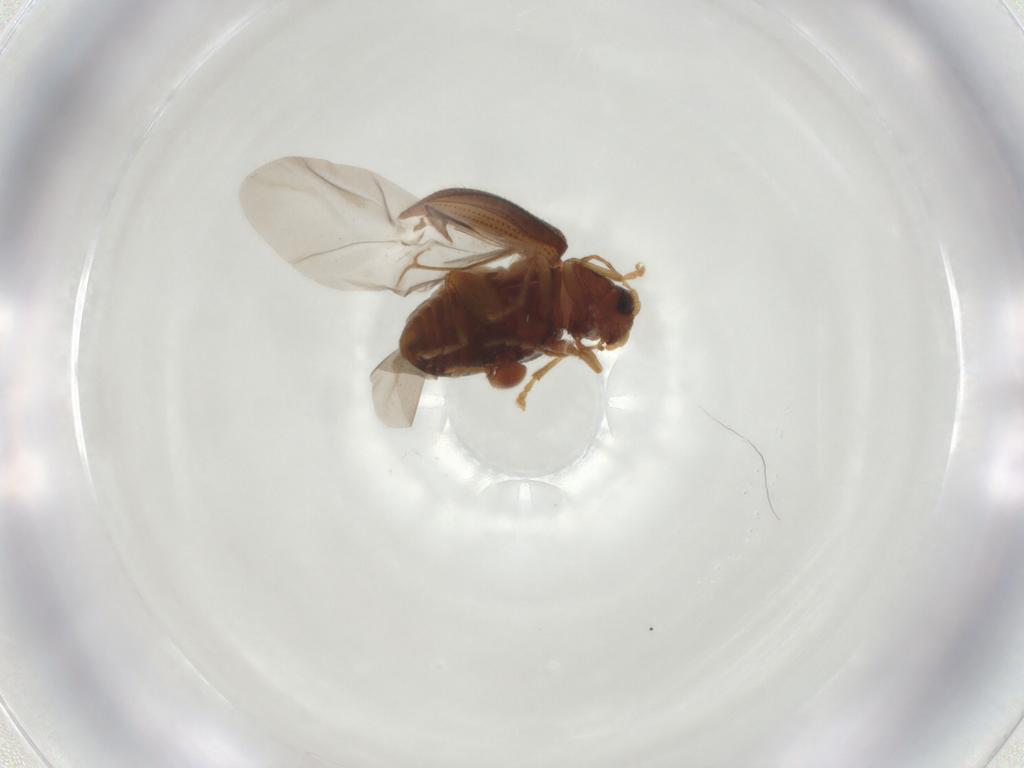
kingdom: Animalia
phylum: Arthropoda
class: Insecta
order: Coleoptera
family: Chrysomelidae
